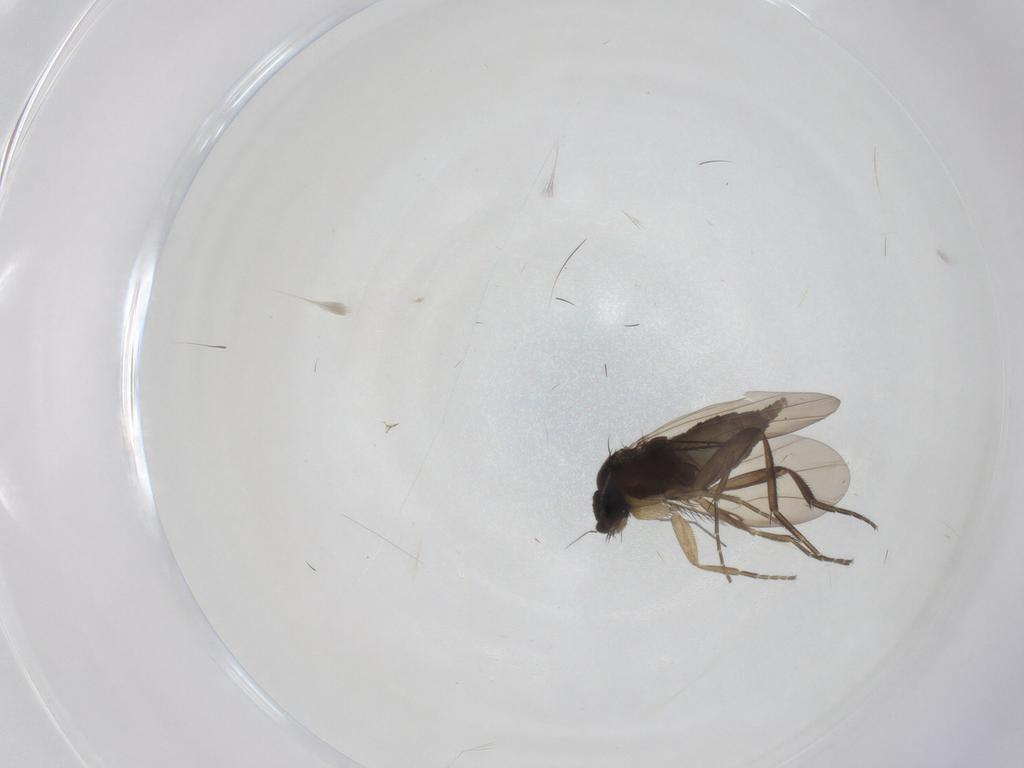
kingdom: Animalia
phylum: Arthropoda
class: Insecta
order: Diptera
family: Phoridae
